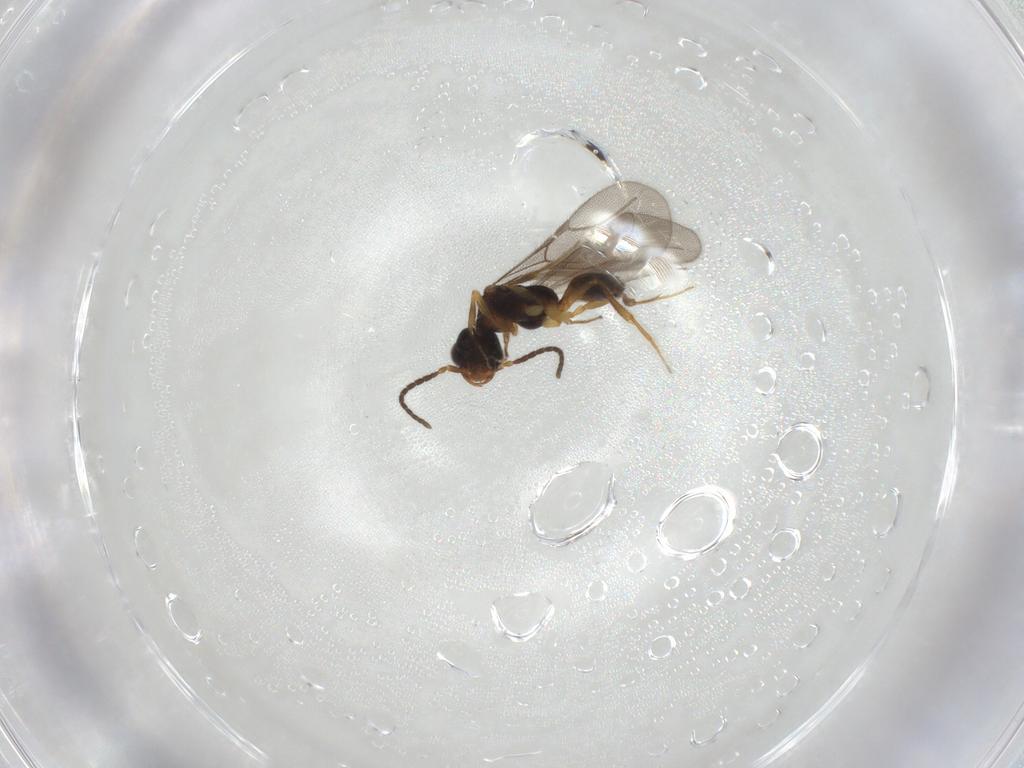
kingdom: Animalia
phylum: Arthropoda
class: Insecta
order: Hymenoptera
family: Bethylidae
